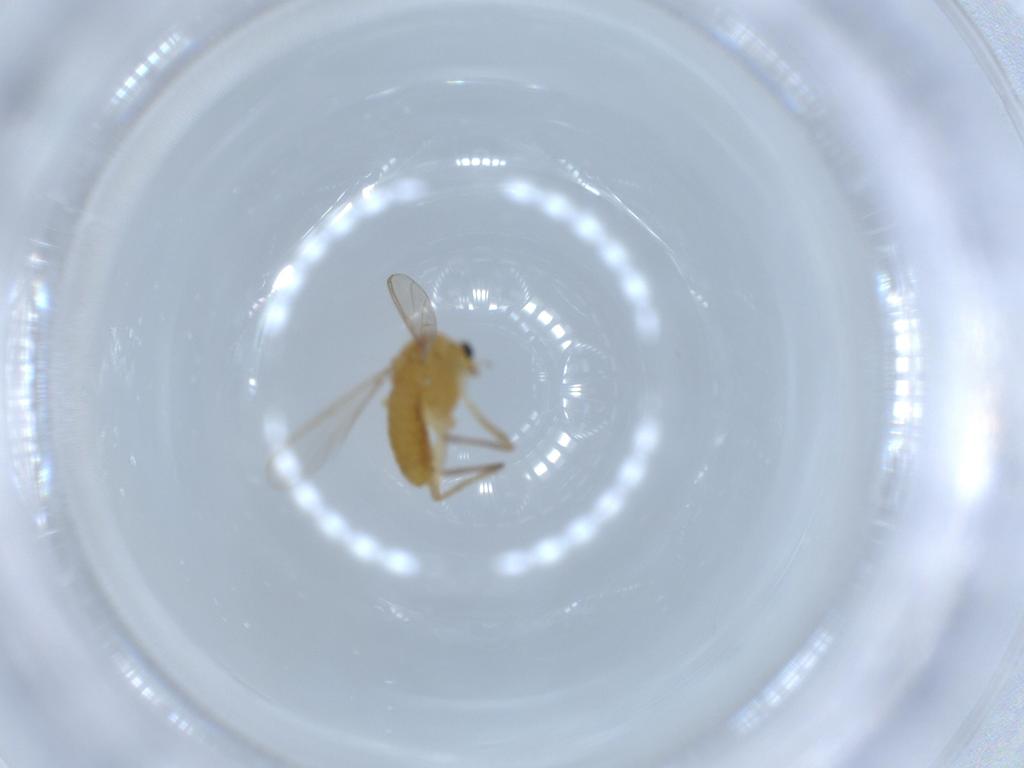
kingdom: Animalia
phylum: Arthropoda
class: Insecta
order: Diptera
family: Chironomidae
